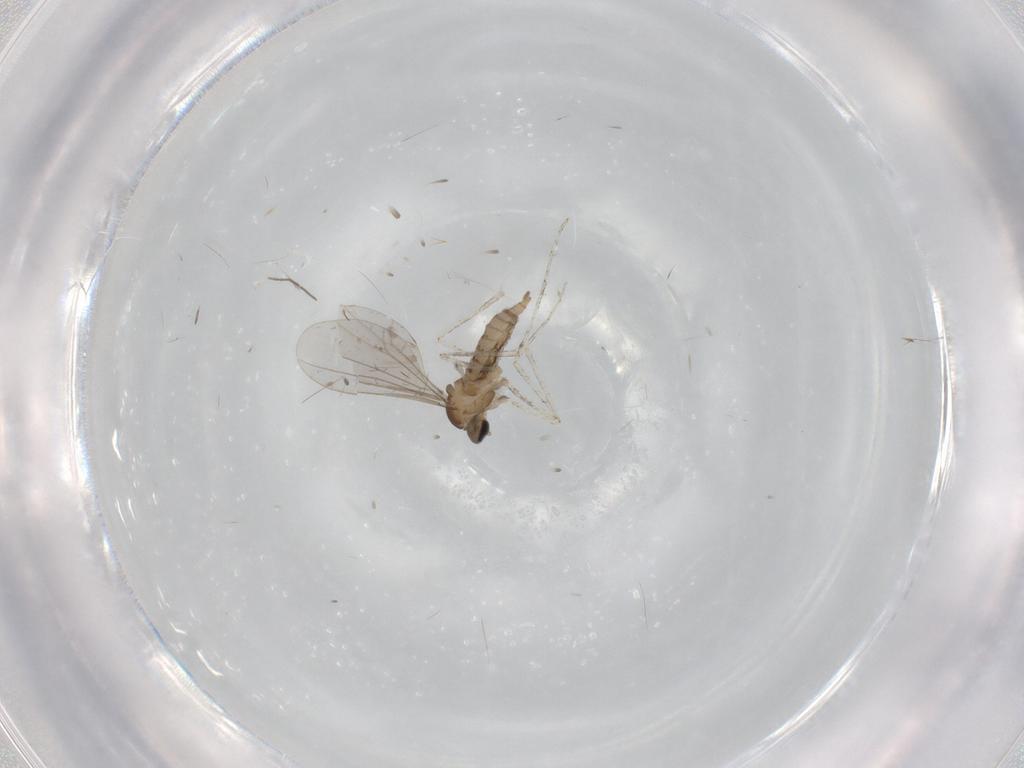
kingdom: Animalia
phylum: Arthropoda
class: Insecta
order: Diptera
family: Cecidomyiidae
